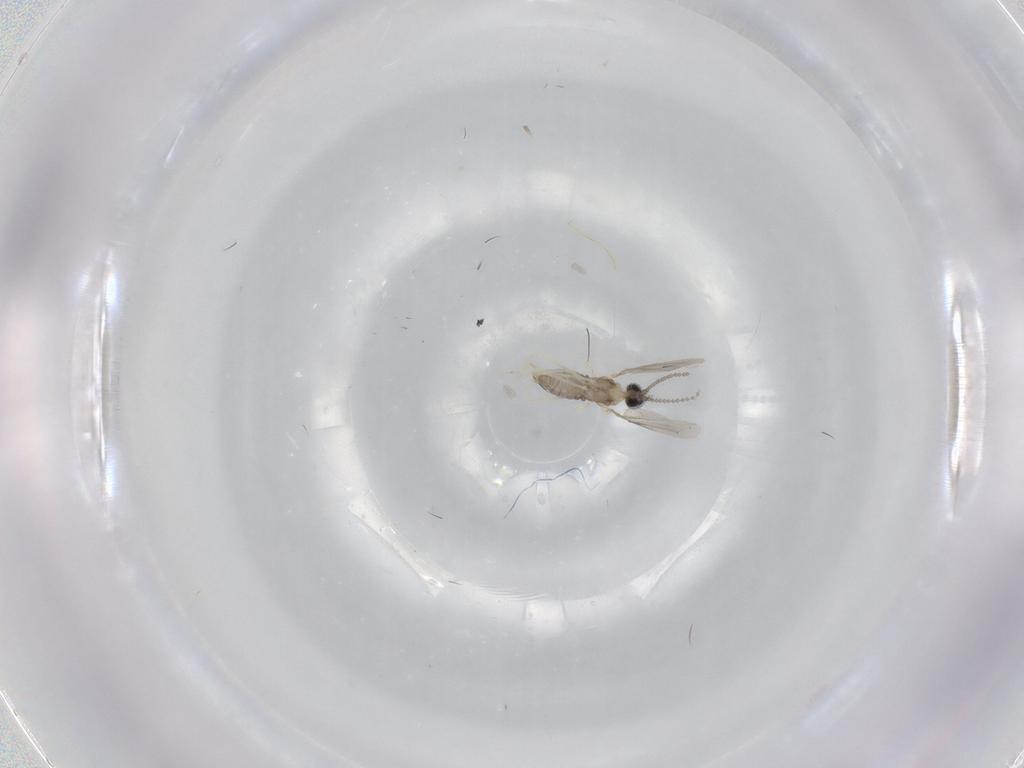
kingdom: Animalia
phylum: Arthropoda
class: Insecta
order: Diptera
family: Cecidomyiidae
